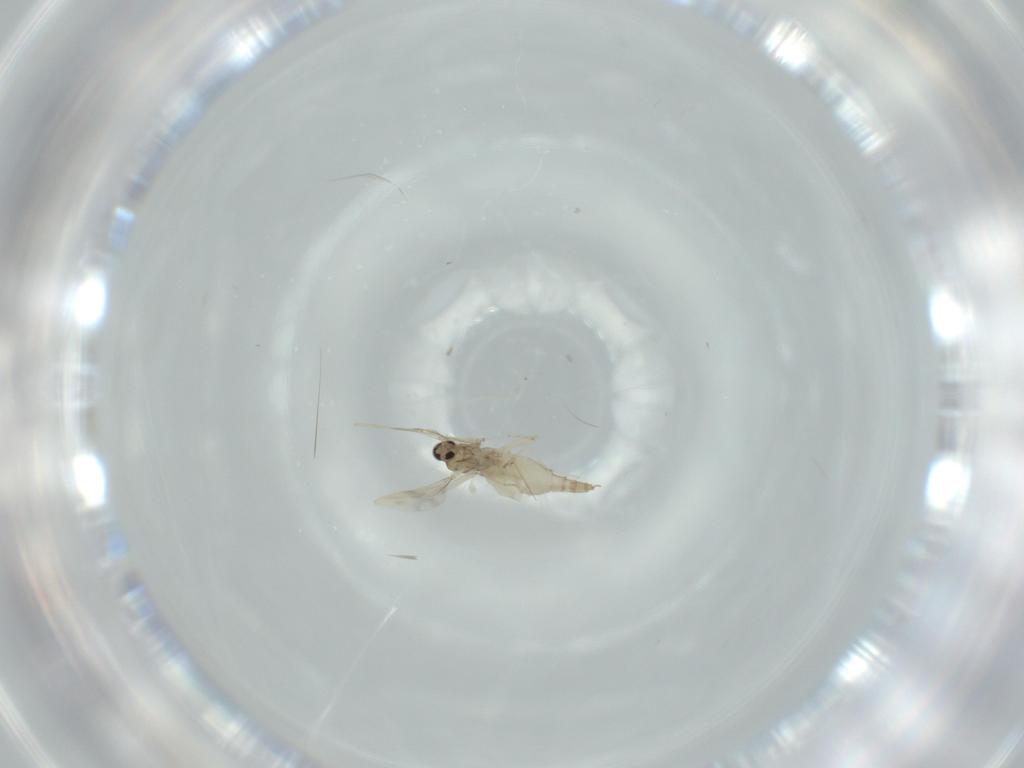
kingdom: Animalia
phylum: Arthropoda
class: Insecta
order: Diptera
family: Cecidomyiidae
